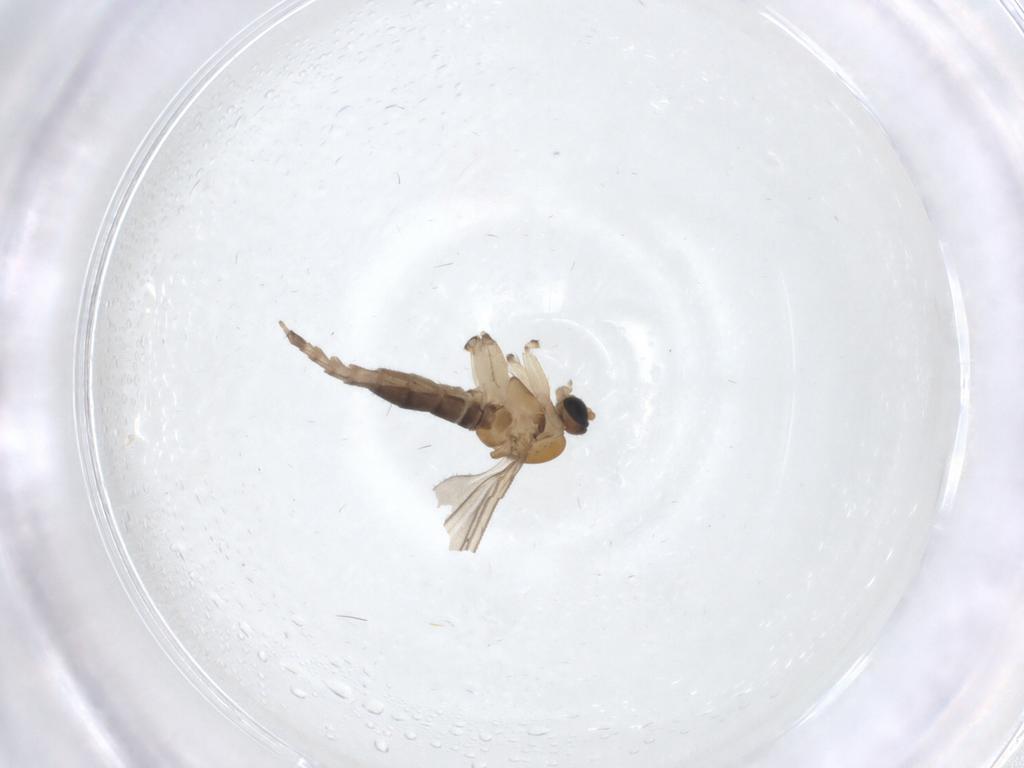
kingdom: Animalia
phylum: Arthropoda
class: Insecta
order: Diptera
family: Sciaridae
